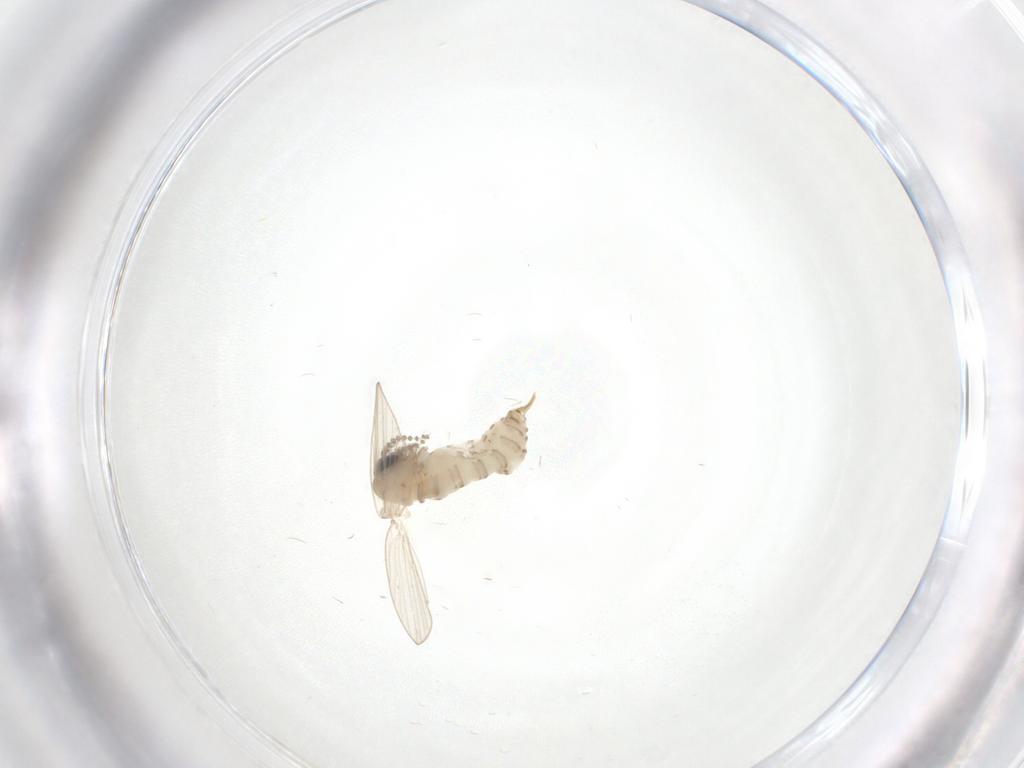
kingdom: Animalia
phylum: Arthropoda
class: Insecta
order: Diptera
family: Psychodidae
